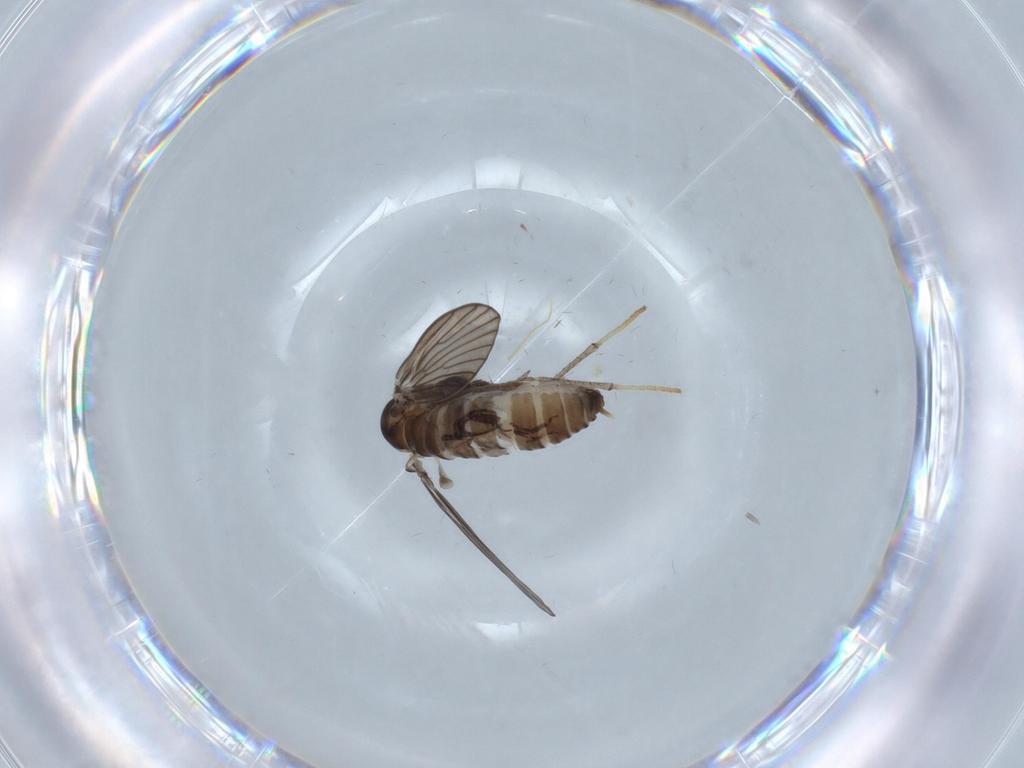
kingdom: Animalia
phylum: Arthropoda
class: Insecta
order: Diptera
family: Psychodidae
